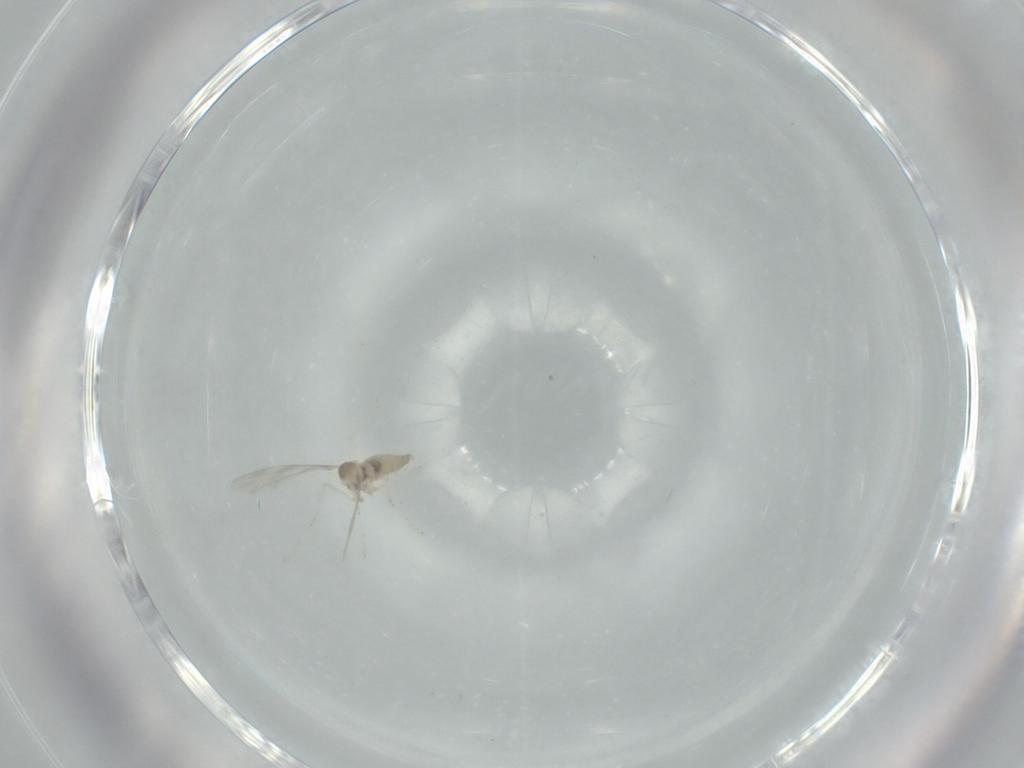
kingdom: Animalia
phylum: Arthropoda
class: Insecta
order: Diptera
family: Cecidomyiidae
